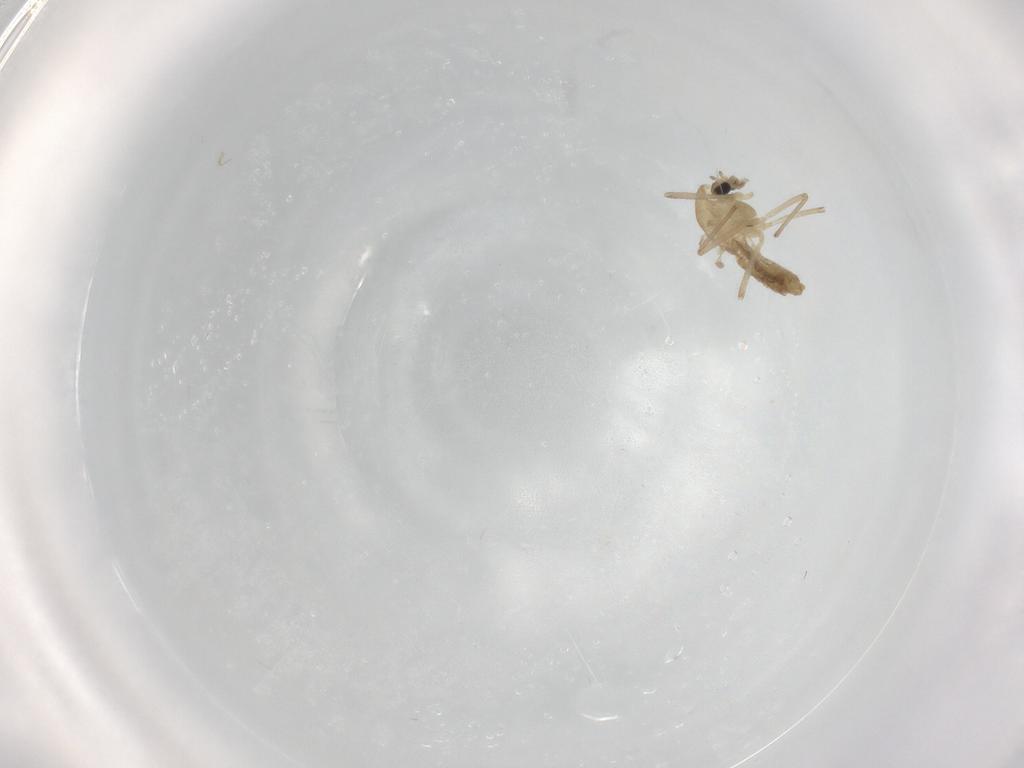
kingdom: Animalia
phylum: Arthropoda
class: Insecta
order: Diptera
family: Chironomidae
